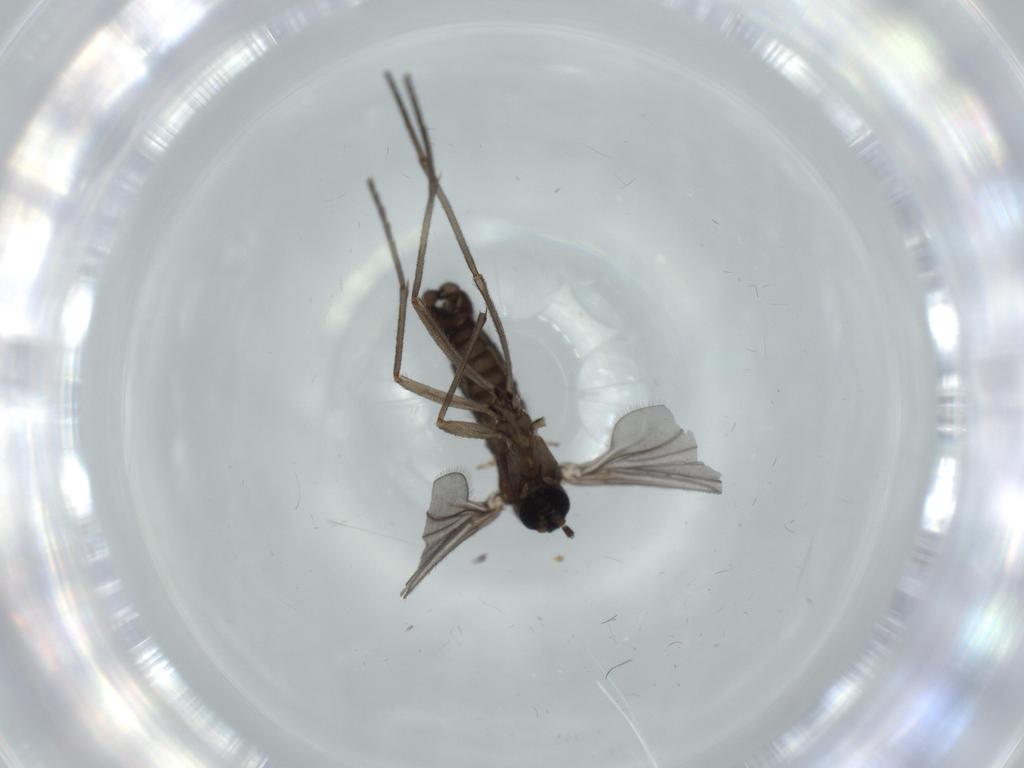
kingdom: Animalia
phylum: Arthropoda
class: Insecta
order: Diptera
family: Sciaridae
